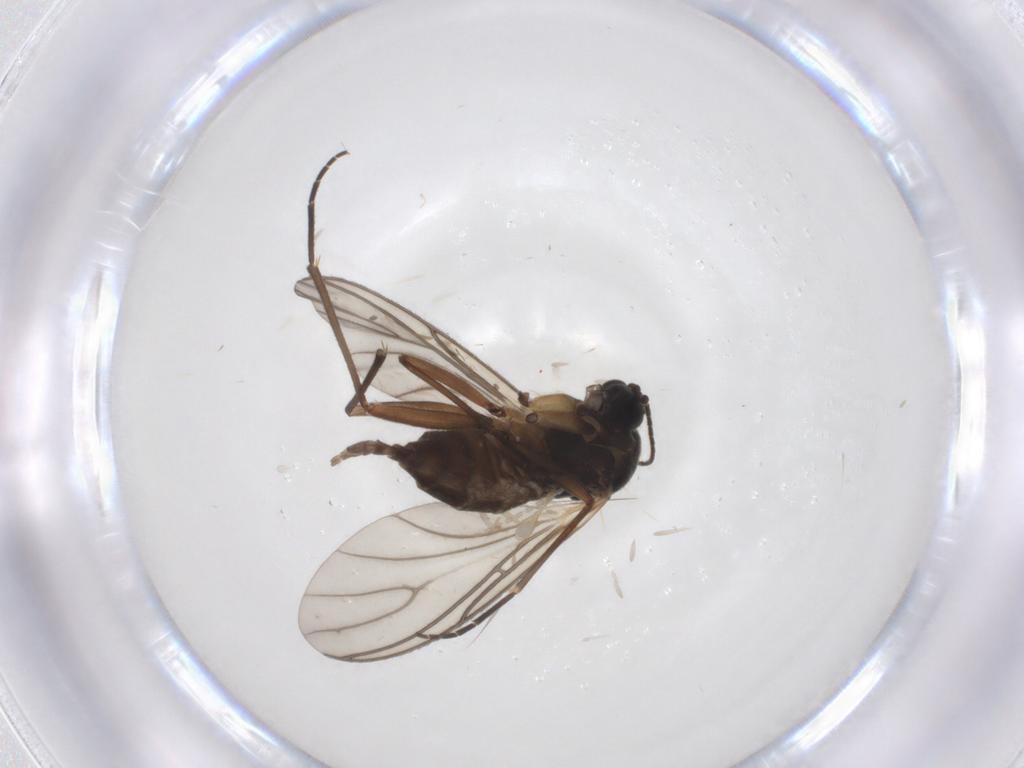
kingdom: Animalia
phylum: Arthropoda
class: Insecta
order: Diptera
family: Sciaridae
